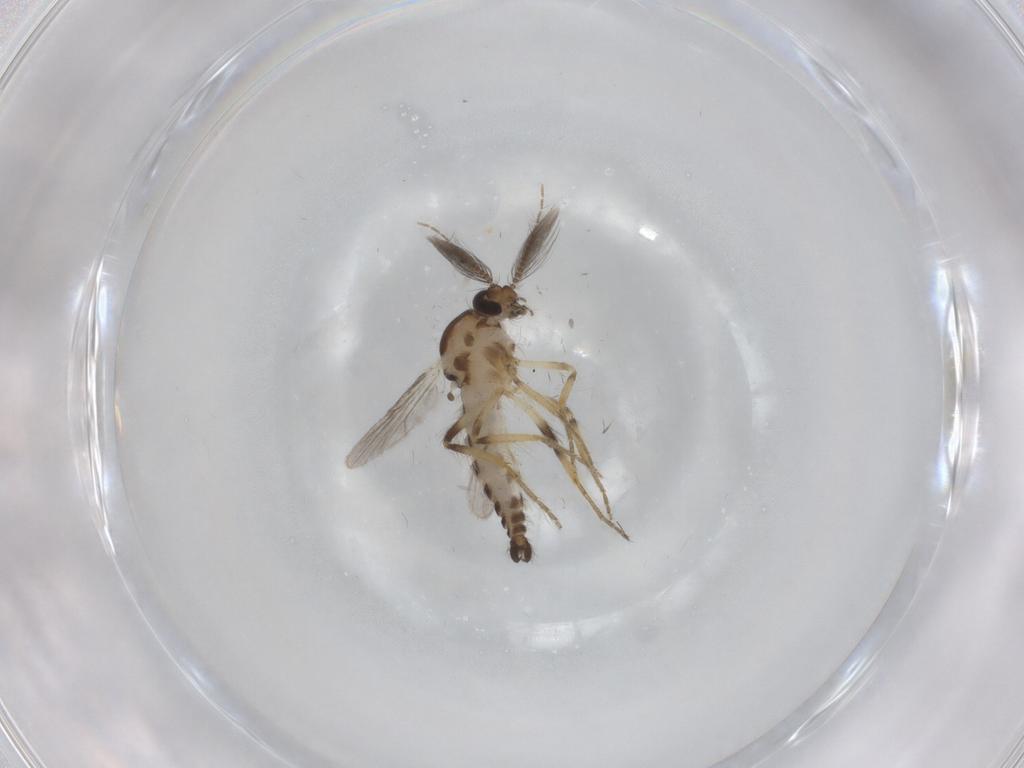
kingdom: Animalia
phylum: Arthropoda
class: Insecta
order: Diptera
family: Ceratopogonidae
